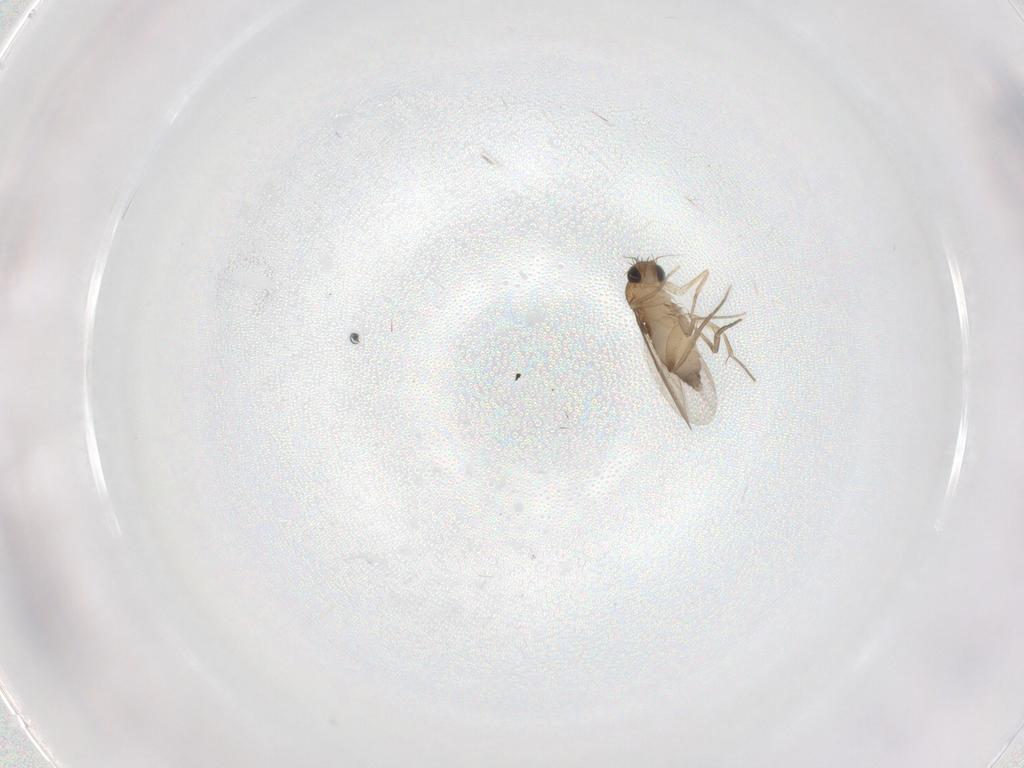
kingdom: Animalia
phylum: Arthropoda
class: Insecta
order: Diptera
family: Phoridae
